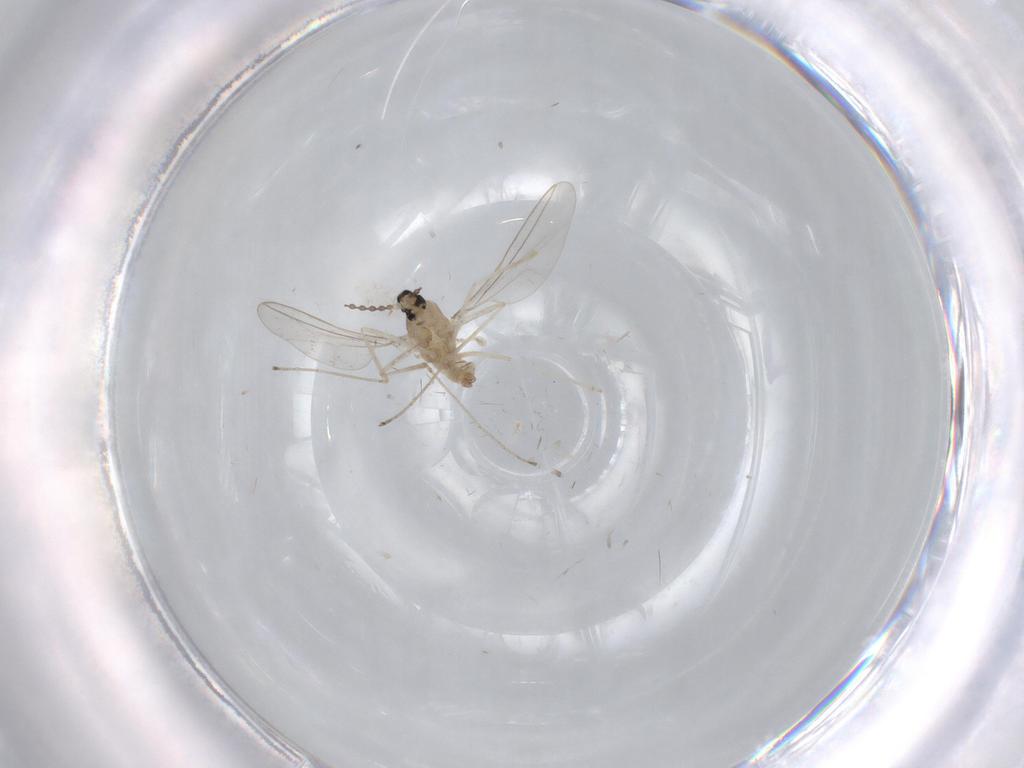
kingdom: Animalia
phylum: Arthropoda
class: Insecta
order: Diptera
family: Cecidomyiidae
